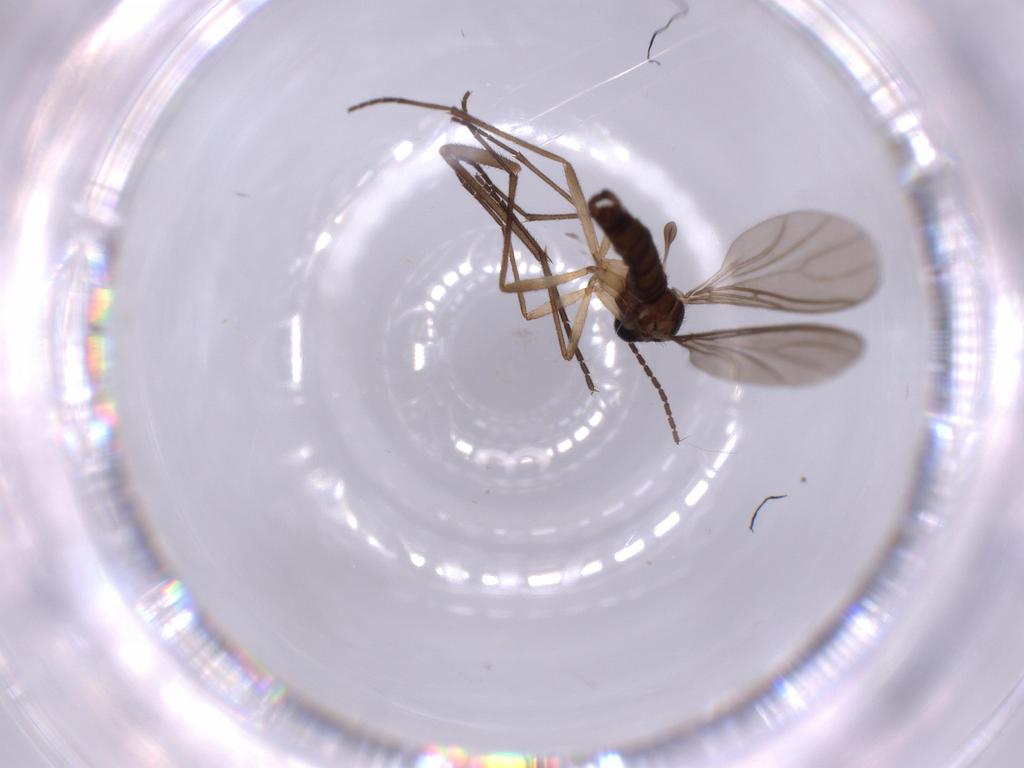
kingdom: Animalia
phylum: Arthropoda
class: Insecta
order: Diptera
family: Sciaridae
